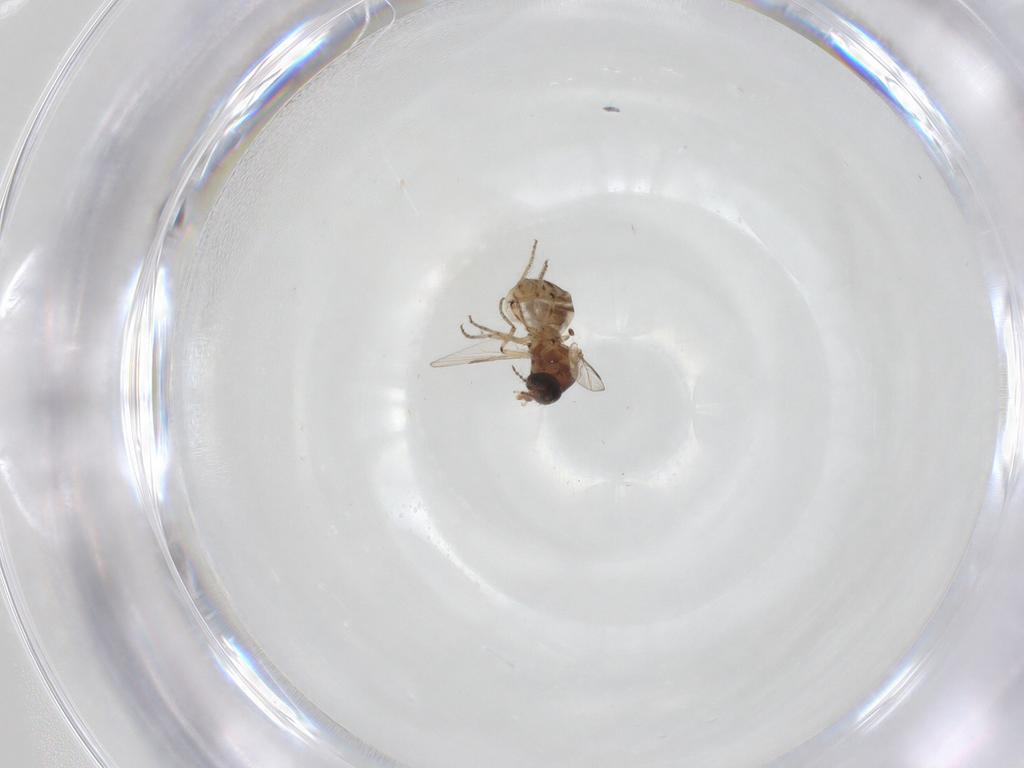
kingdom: Animalia
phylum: Arthropoda
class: Insecta
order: Diptera
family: Ceratopogonidae
